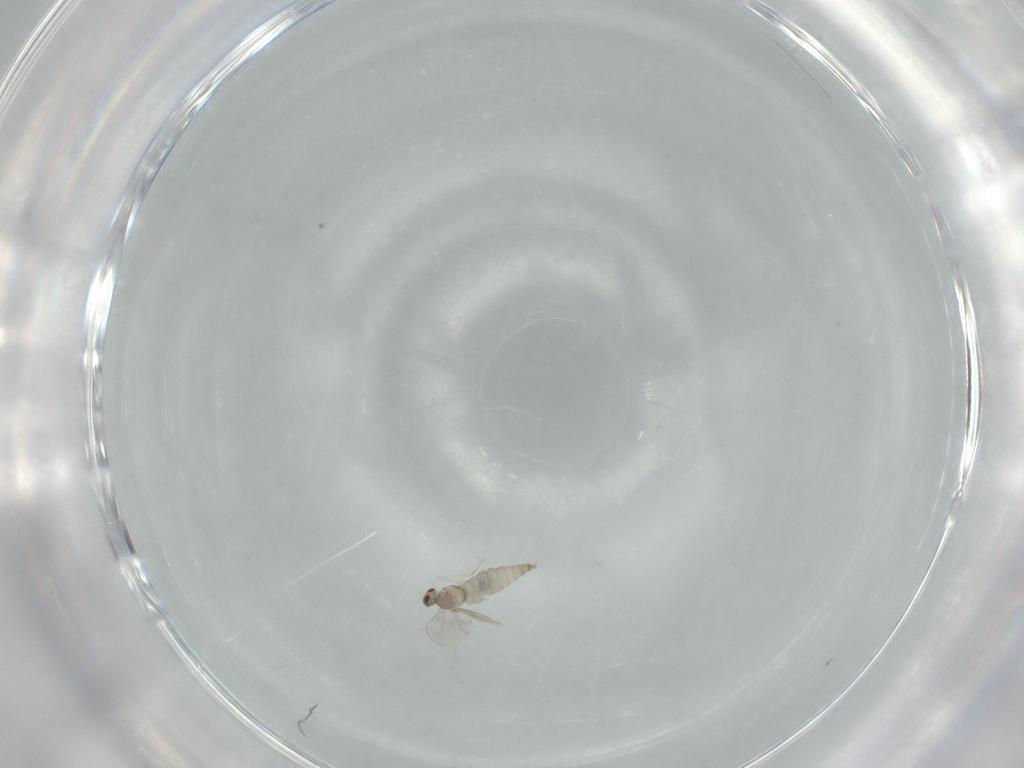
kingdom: Animalia
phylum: Arthropoda
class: Insecta
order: Diptera
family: Cecidomyiidae
